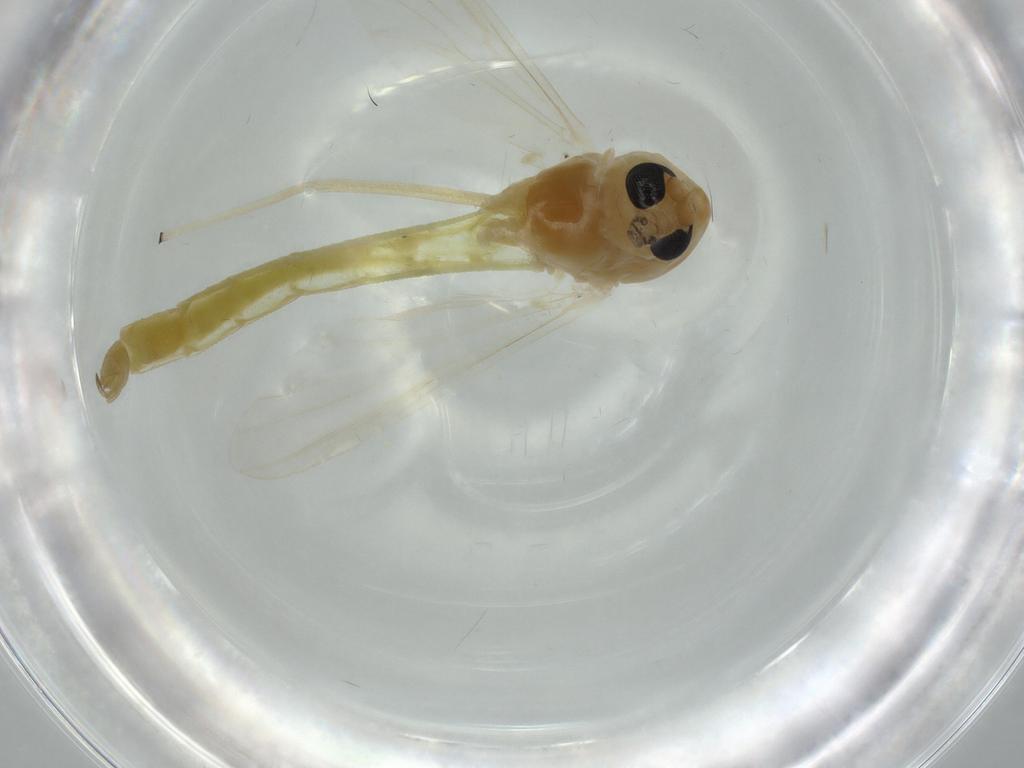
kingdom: Animalia
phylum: Arthropoda
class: Insecta
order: Diptera
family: Chironomidae
